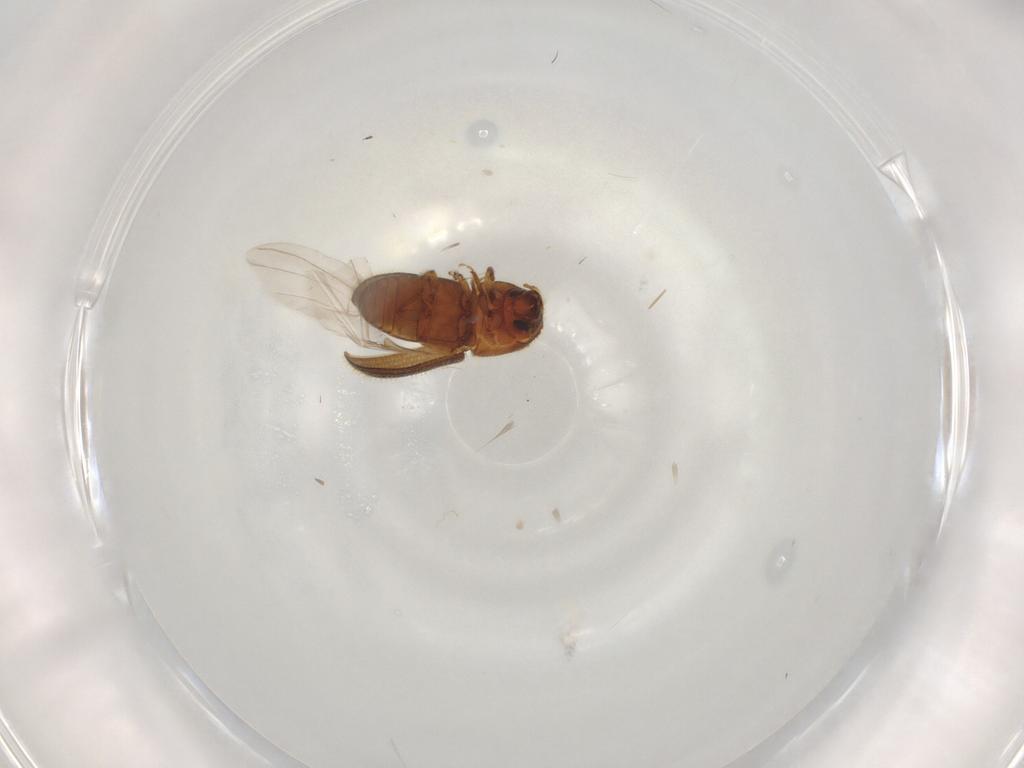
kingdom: Animalia
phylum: Arthropoda
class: Insecta
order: Coleoptera
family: Curculionidae
